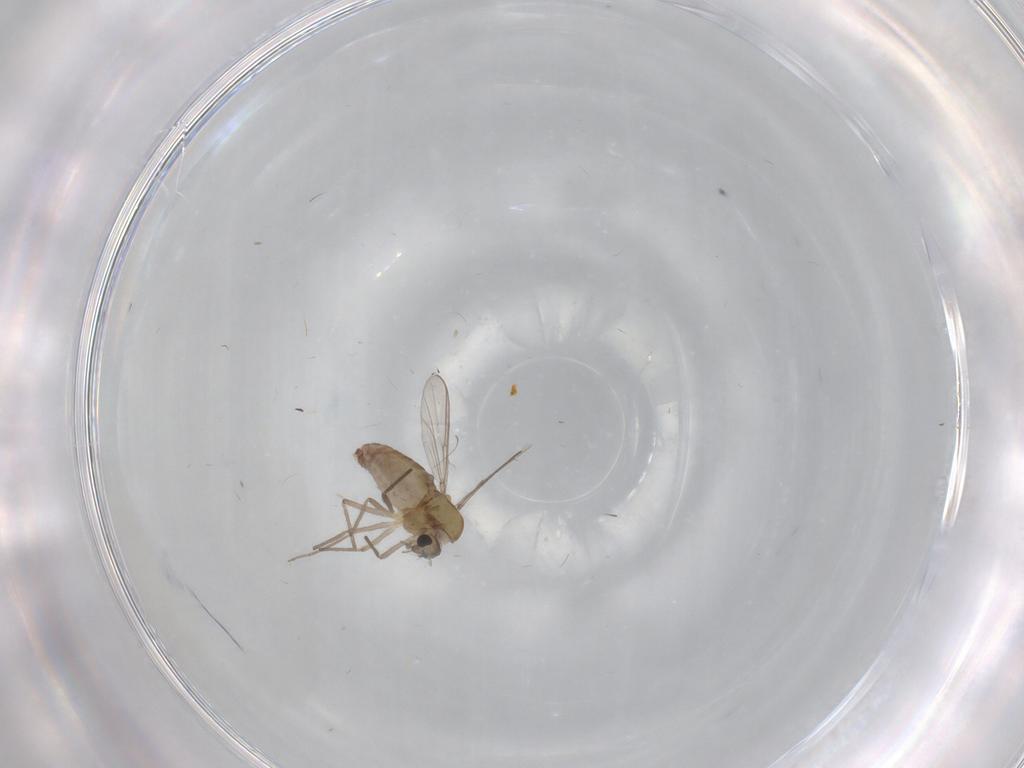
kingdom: Animalia
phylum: Arthropoda
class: Insecta
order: Diptera
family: Chironomidae
